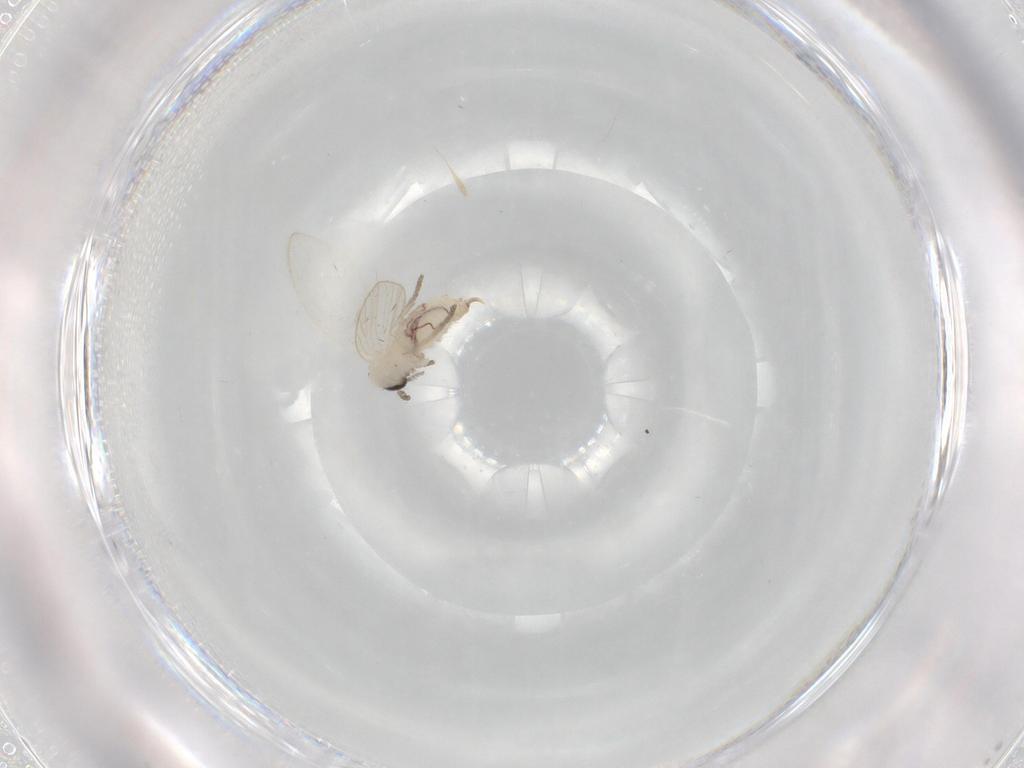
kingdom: Animalia
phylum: Arthropoda
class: Insecta
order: Diptera
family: Psychodidae
